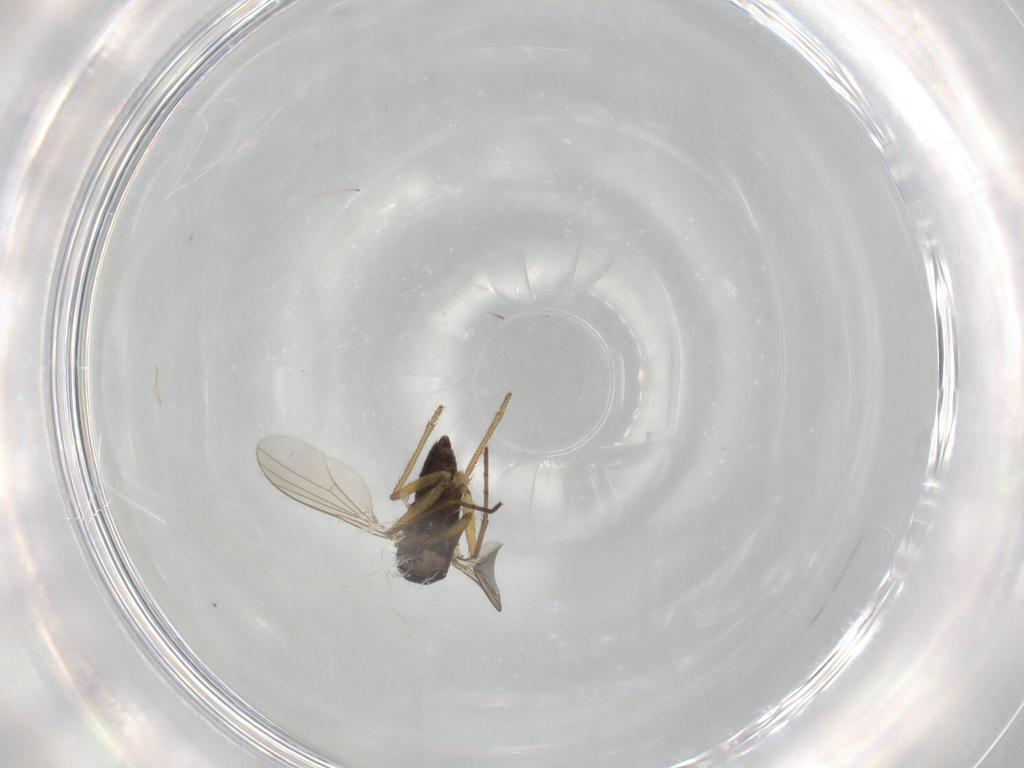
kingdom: Animalia
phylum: Arthropoda
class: Insecta
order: Diptera
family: Dolichopodidae
